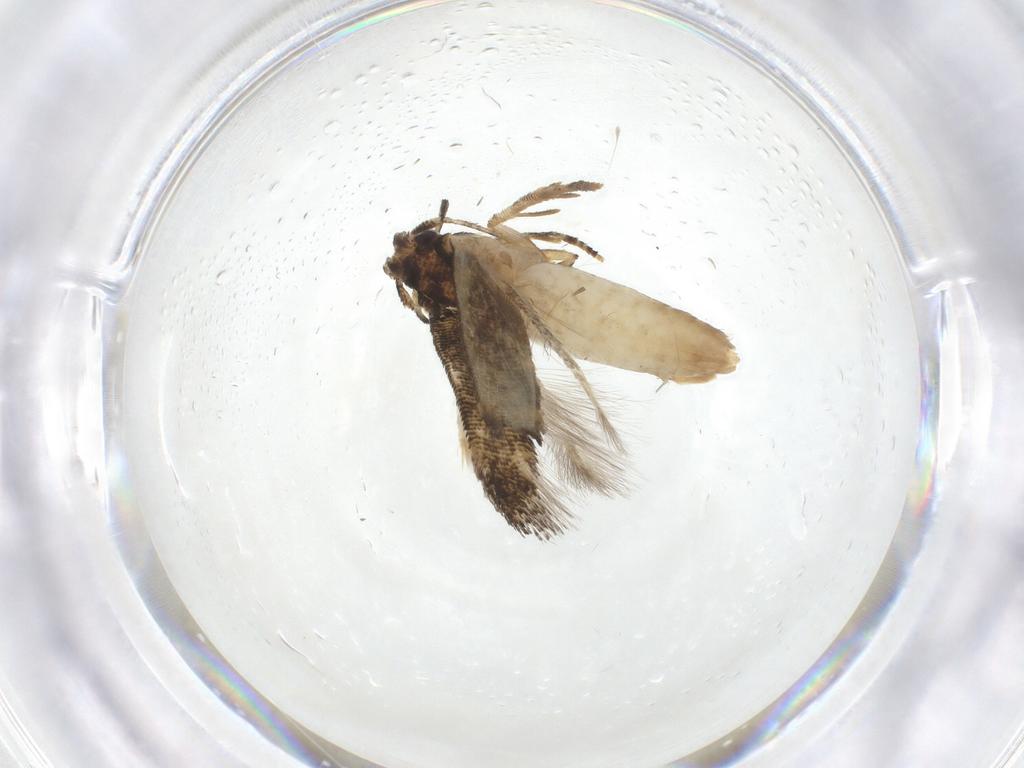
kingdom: Animalia
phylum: Arthropoda
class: Insecta
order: Lepidoptera
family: Gelechiidae
